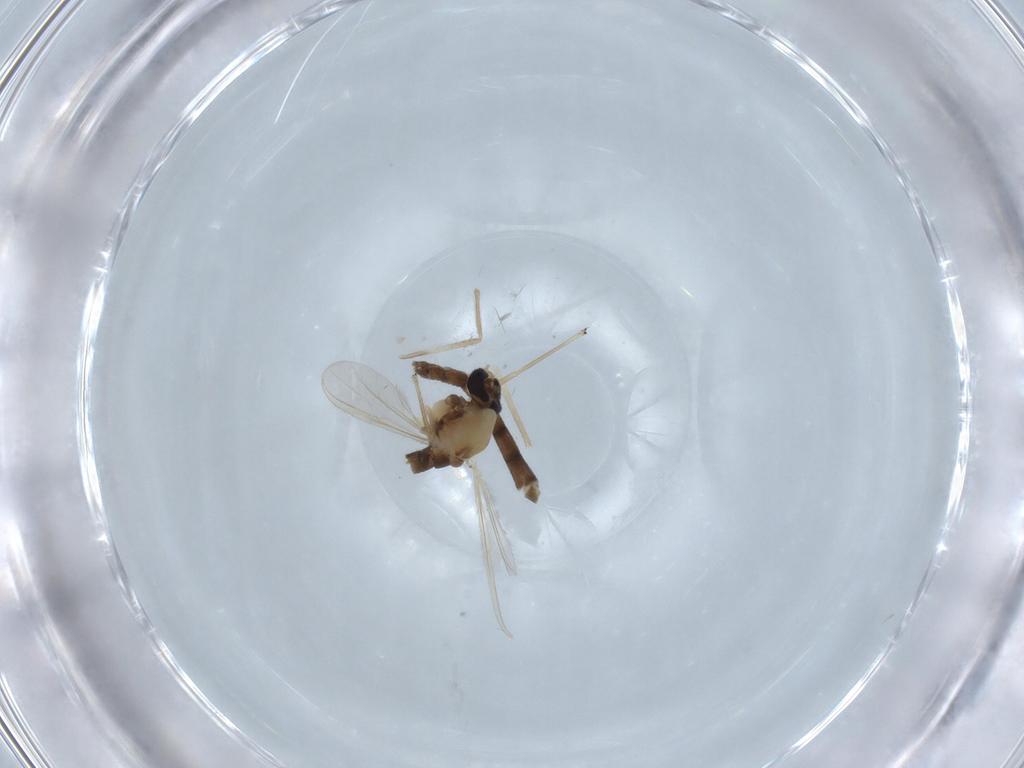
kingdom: Animalia
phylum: Arthropoda
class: Insecta
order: Diptera
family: Chironomidae
